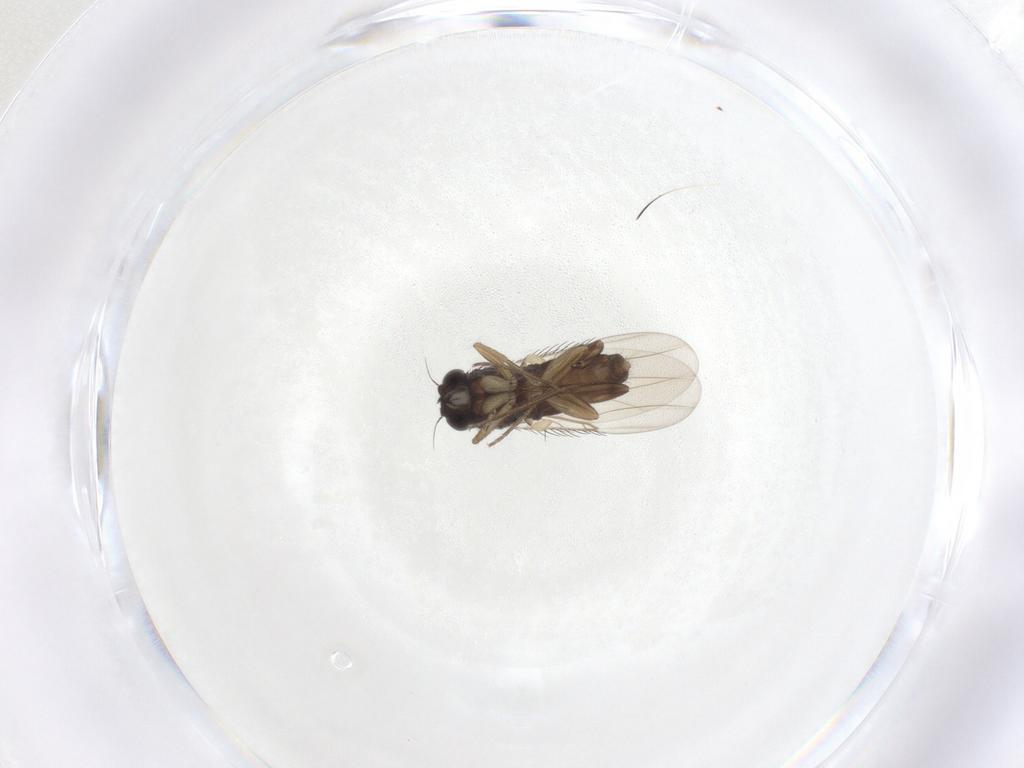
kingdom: Animalia
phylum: Arthropoda
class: Insecta
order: Diptera
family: Phoridae
